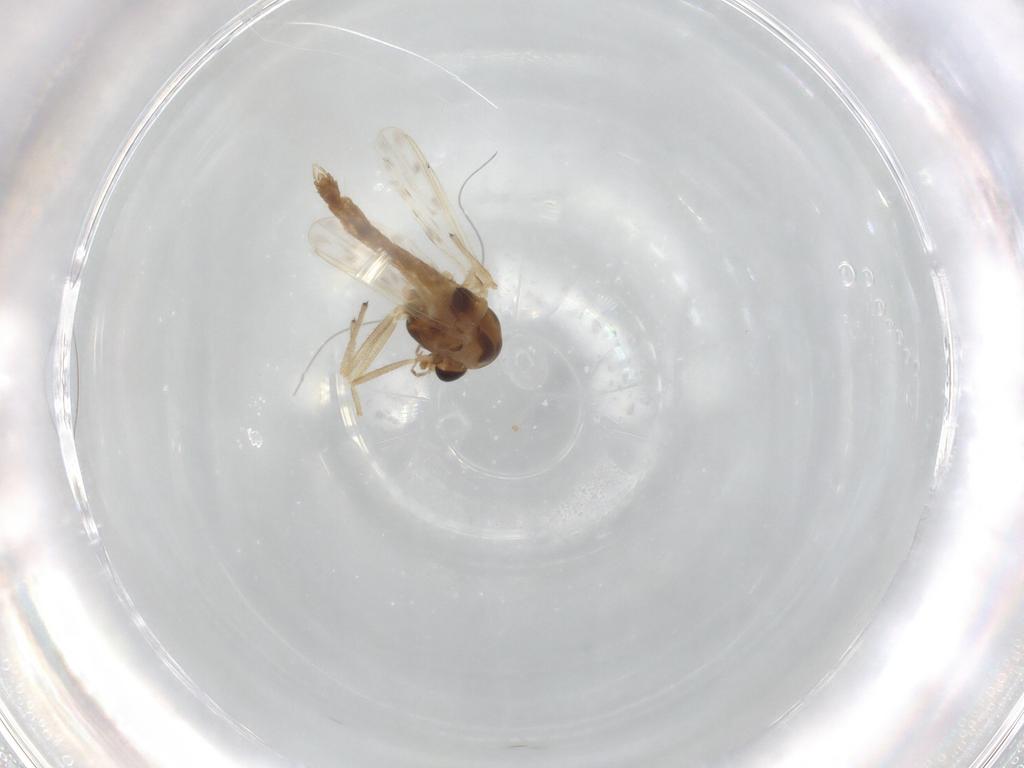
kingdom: Animalia
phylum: Arthropoda
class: Insecta
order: Diptera
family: Chironomidae
